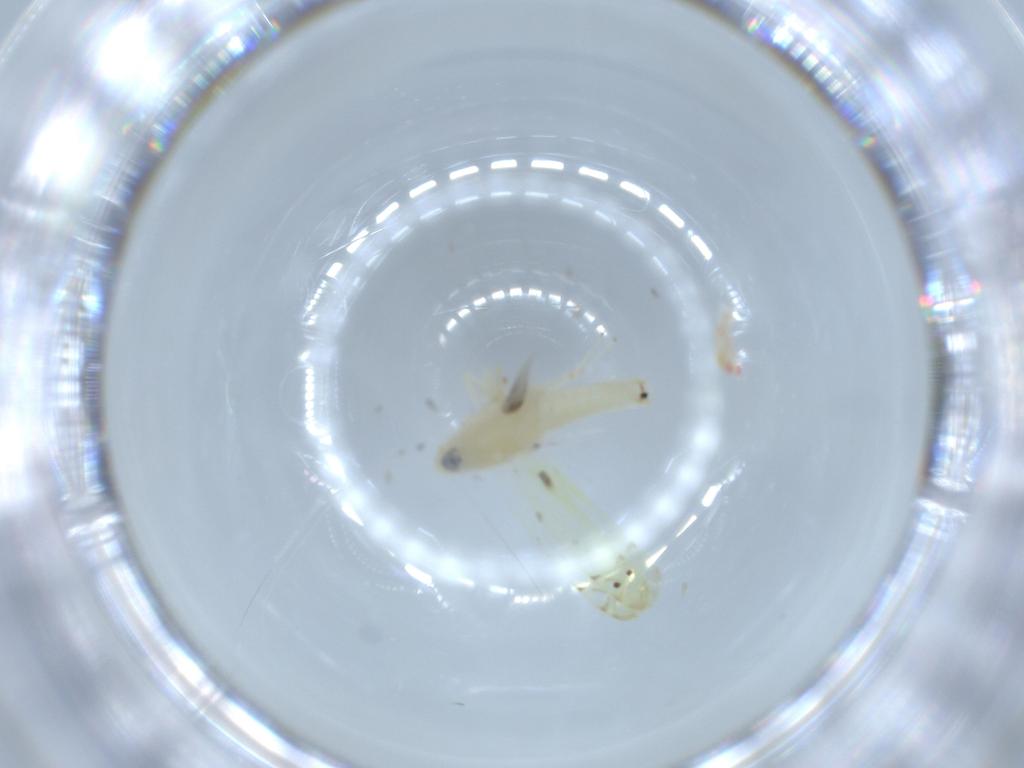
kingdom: Animalia
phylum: Arthropoda
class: Insecta
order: Hemiptera
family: Cicadellidae
